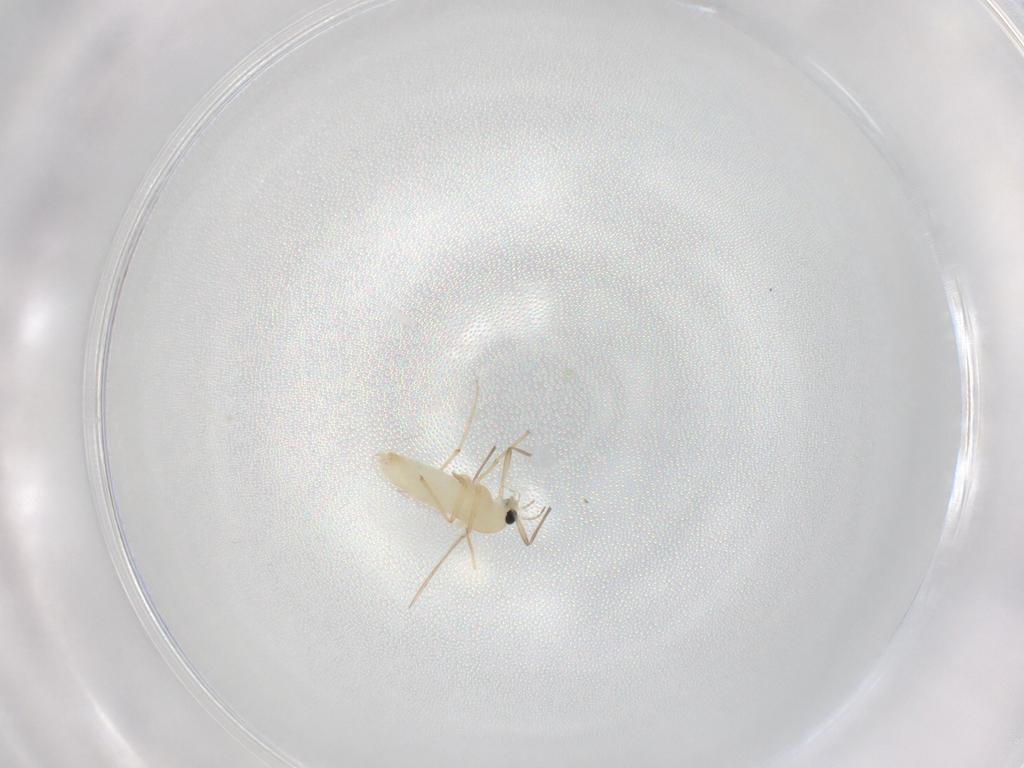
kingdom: Animalia
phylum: Arthropoda
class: Insecta
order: Diptera
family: Chironomidae
